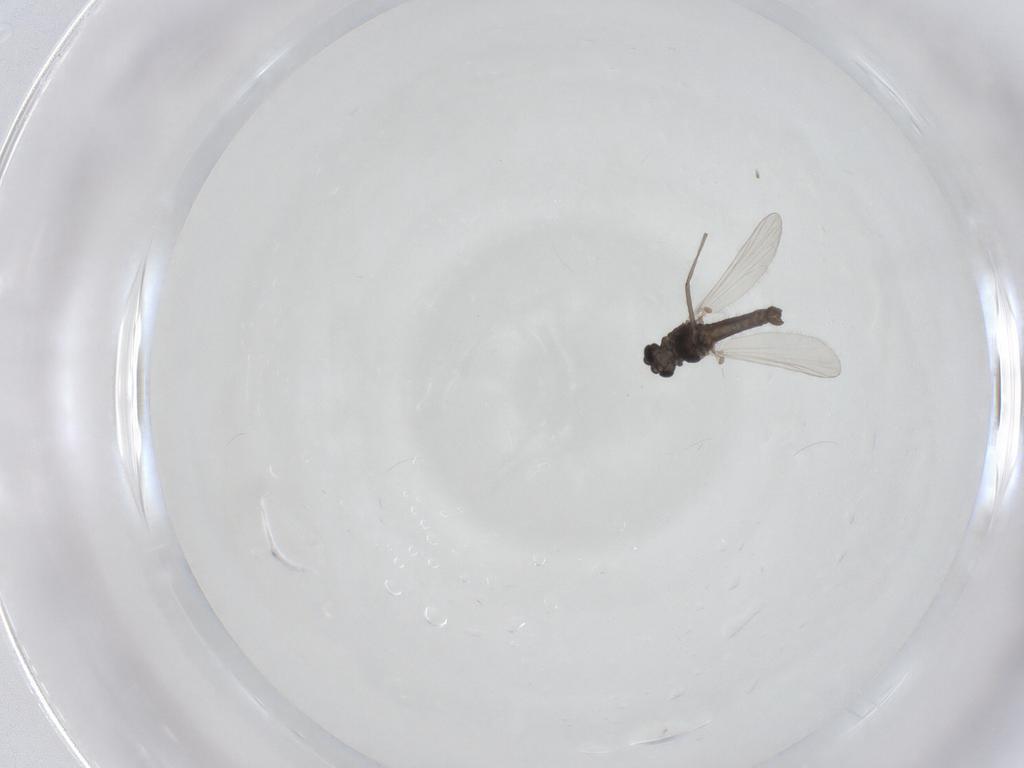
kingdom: Animalia
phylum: Arthropoda
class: Insecta
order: Diptera
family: Chironomidae
